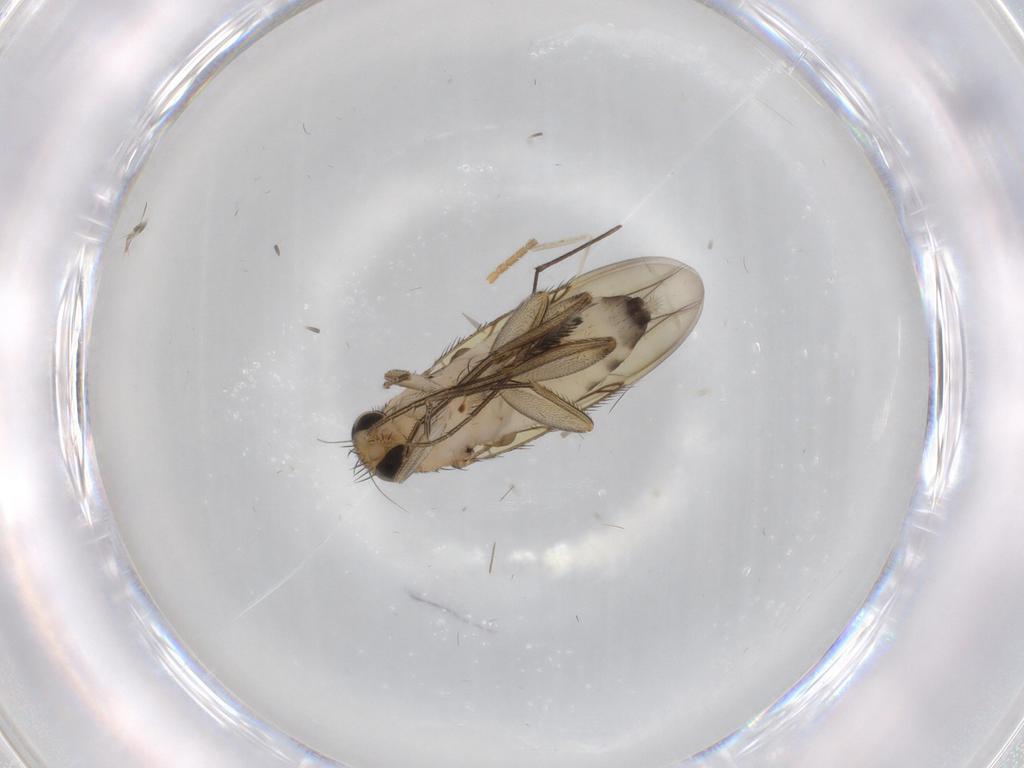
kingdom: Animalia
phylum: Arthropoda
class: Insecta
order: Diptera
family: Phoridae
